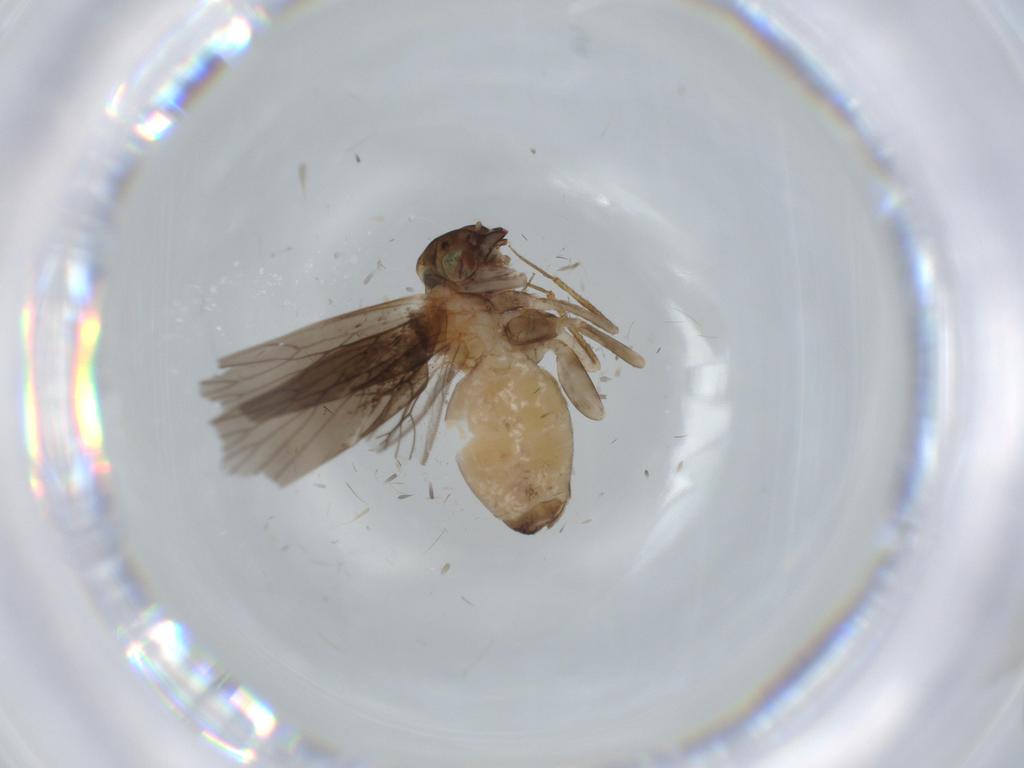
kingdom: Animalia
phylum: Arthropoda
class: Insecta
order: Psocodea
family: Lepidopsocidae
